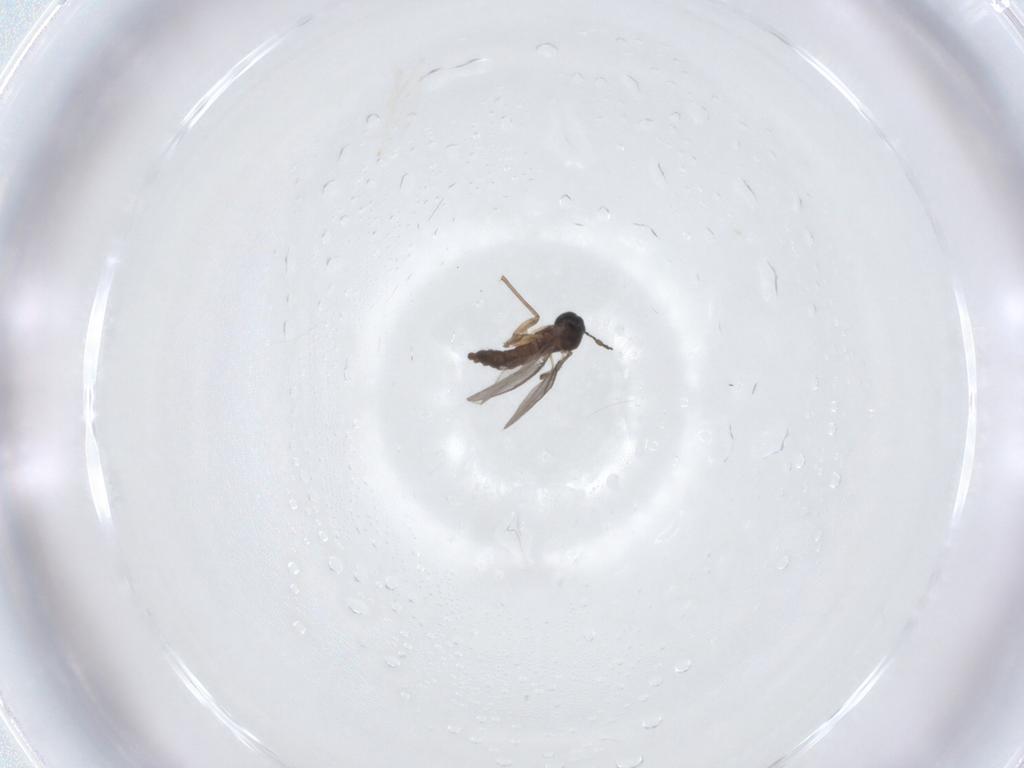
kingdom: Animalia
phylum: Arthropoda
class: Insecta
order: Diptera
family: Sciaridae
